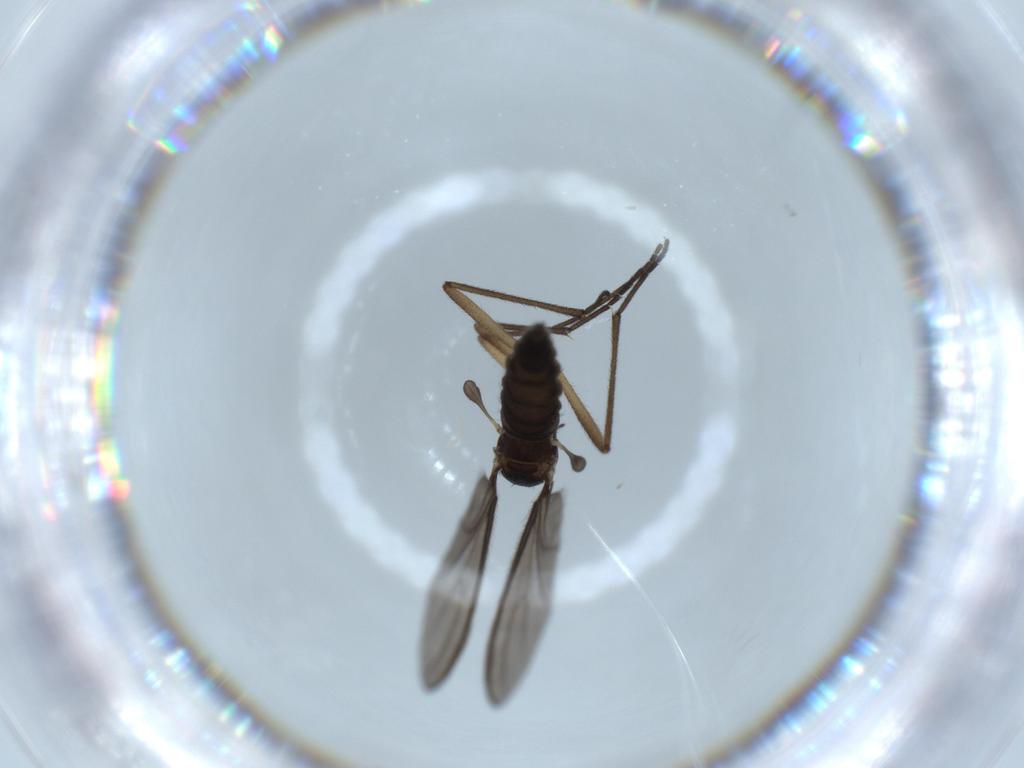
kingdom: Animalia
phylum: Arthropoda
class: Insecta
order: Diptera
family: Sciaridae
